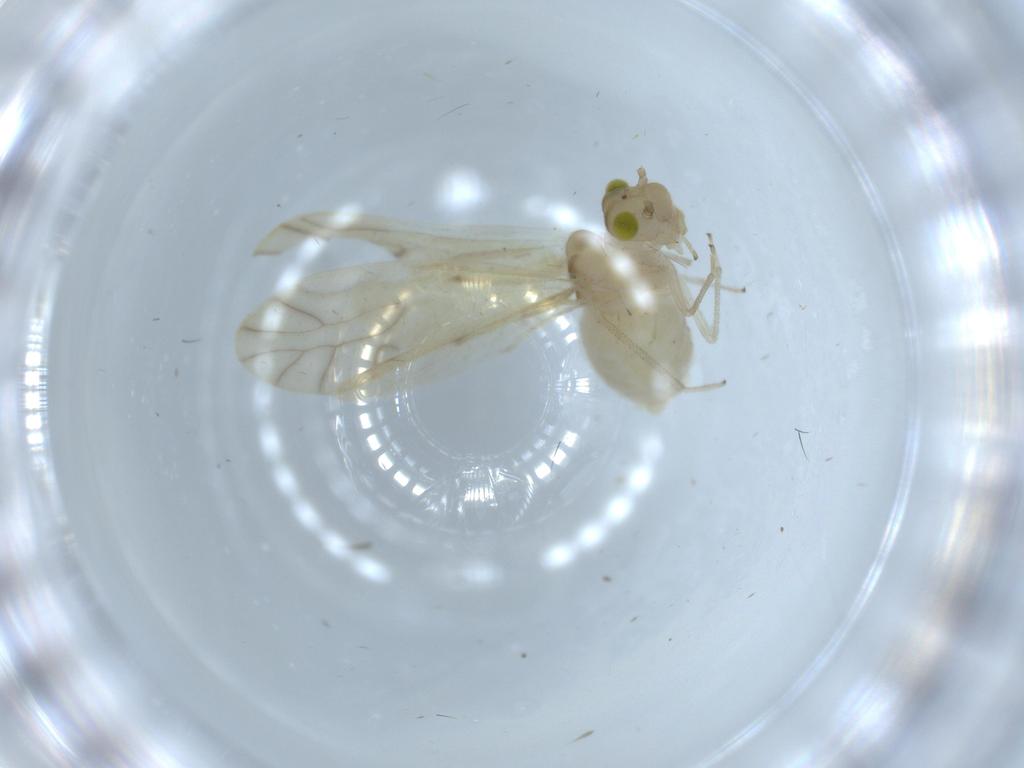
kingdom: Animalia
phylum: Arthropoda
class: Insecta
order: Psocodea
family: Caeciliusidae
